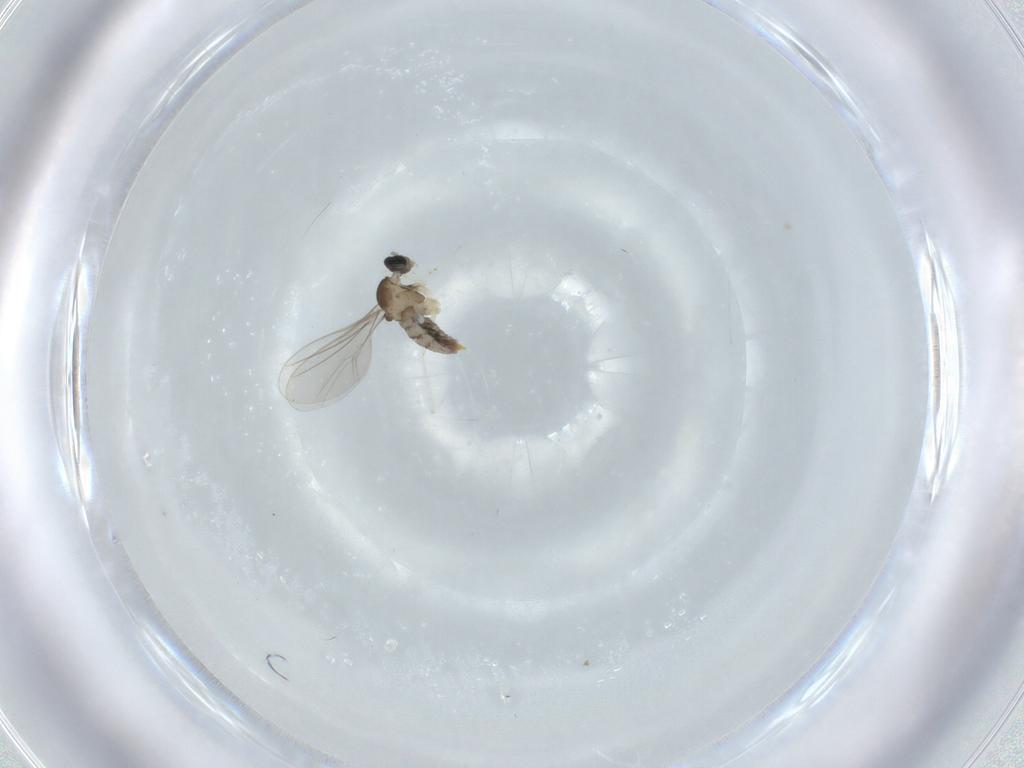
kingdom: Animalia
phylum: Arthropoda
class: Insecta
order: Diptera
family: Cecidomyiidae
